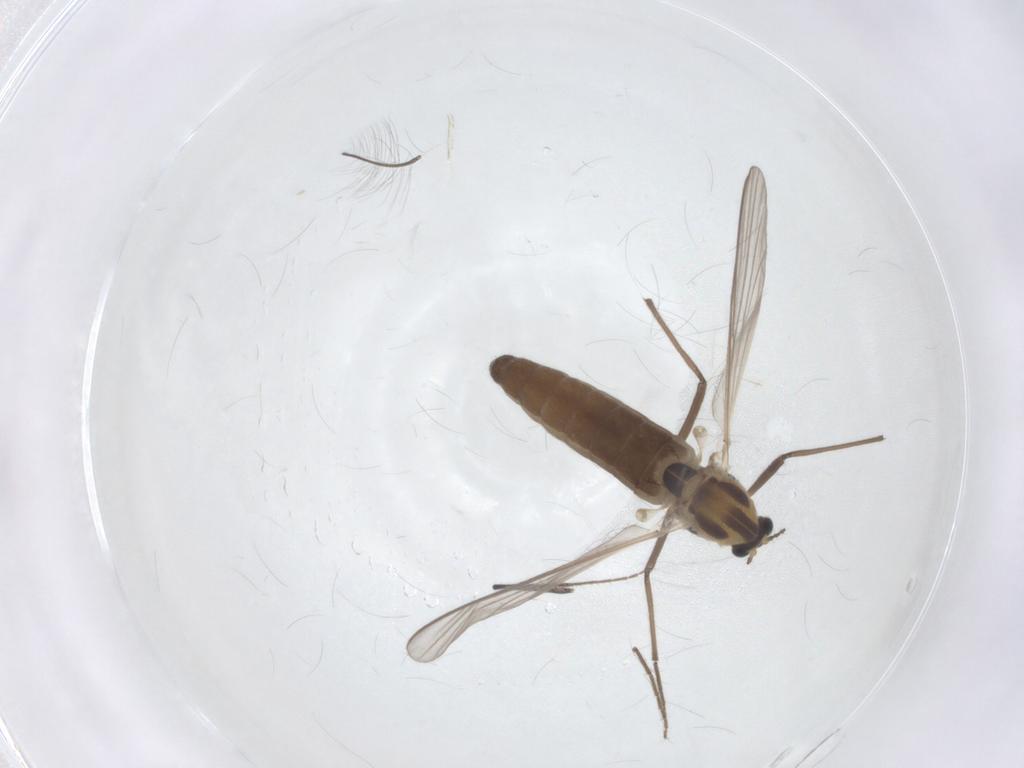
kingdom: Animalia
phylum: Arthropoda
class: Insecta
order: Diptera
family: Chironomidae
